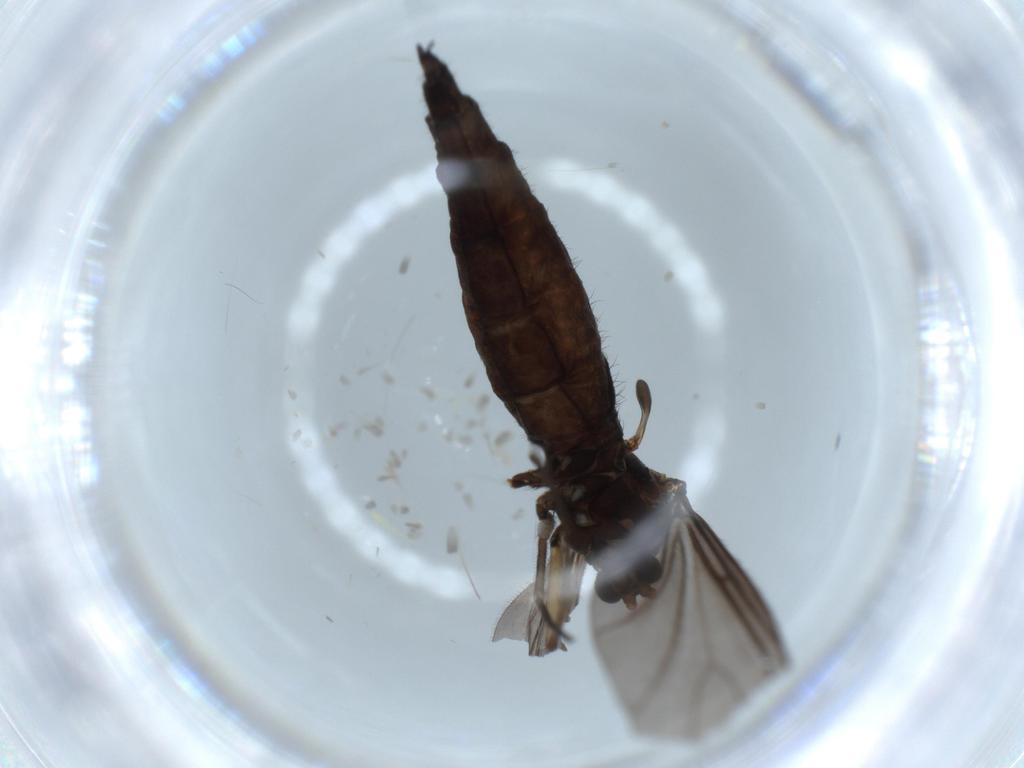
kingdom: Animalia
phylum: Arthropoda
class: Insecta
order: Diptera
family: Sciaridae
